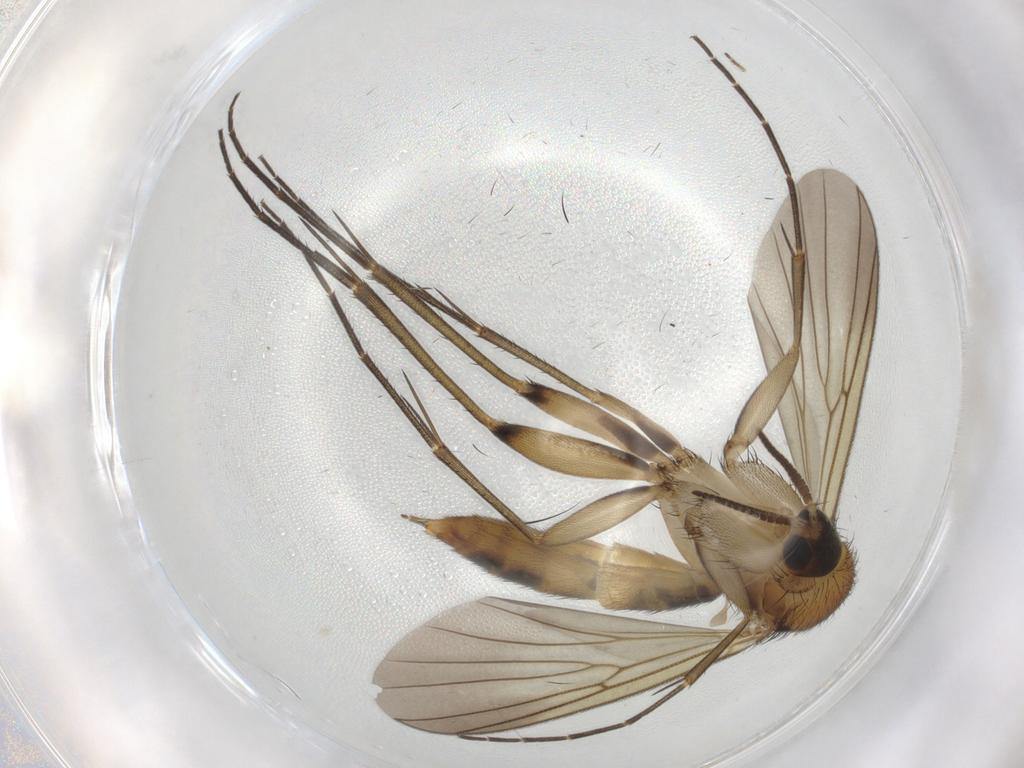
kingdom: Animalia
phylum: Arthropoda
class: Insecta
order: Diptera
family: Mycetophilidae
